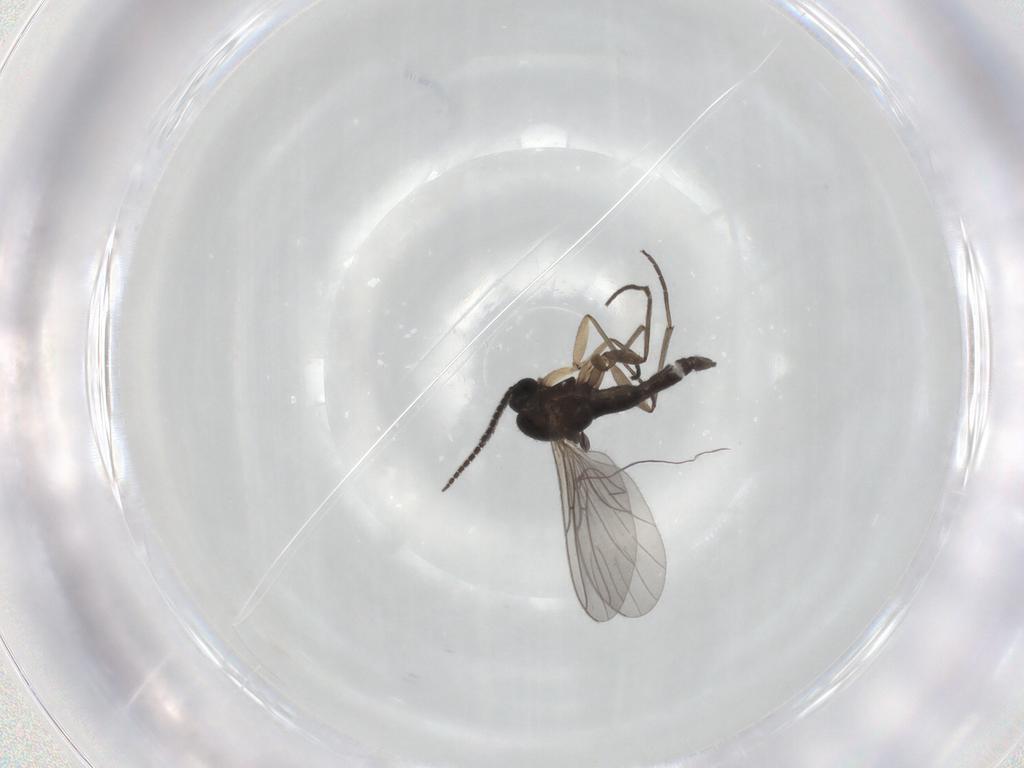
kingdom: Animalia
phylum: Arthropoda
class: Insecta
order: Diptera
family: Sciaridae
